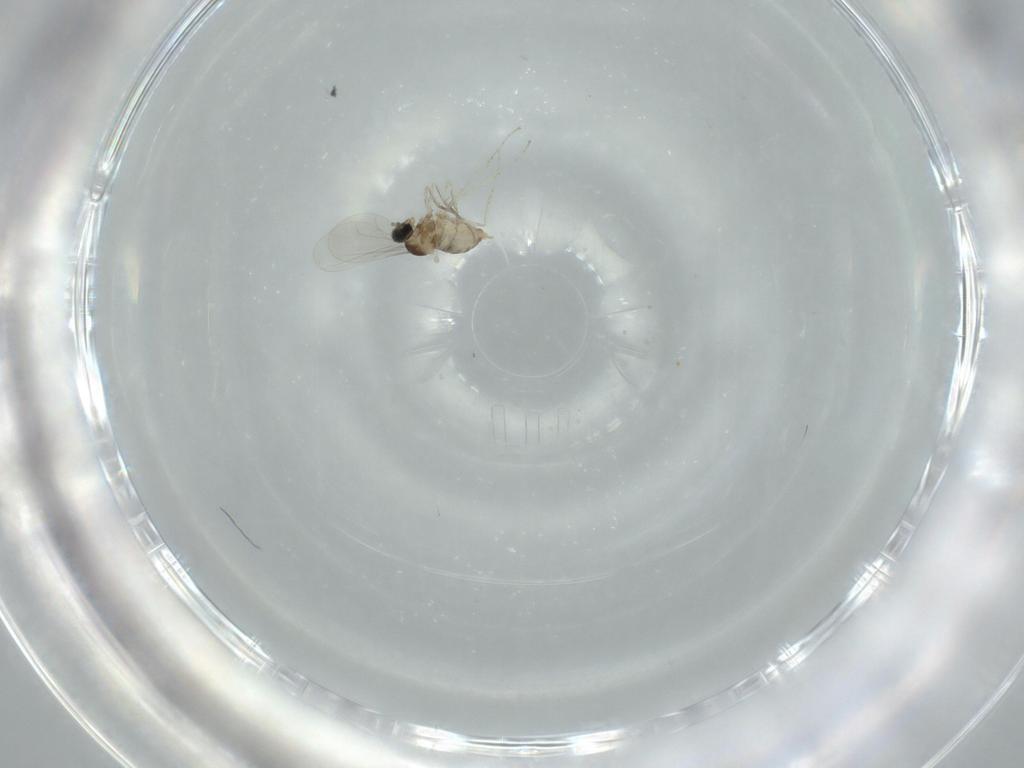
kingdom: Animalia
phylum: Arthropoda
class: Insecta
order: Diptera
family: Cecidomyiidae
